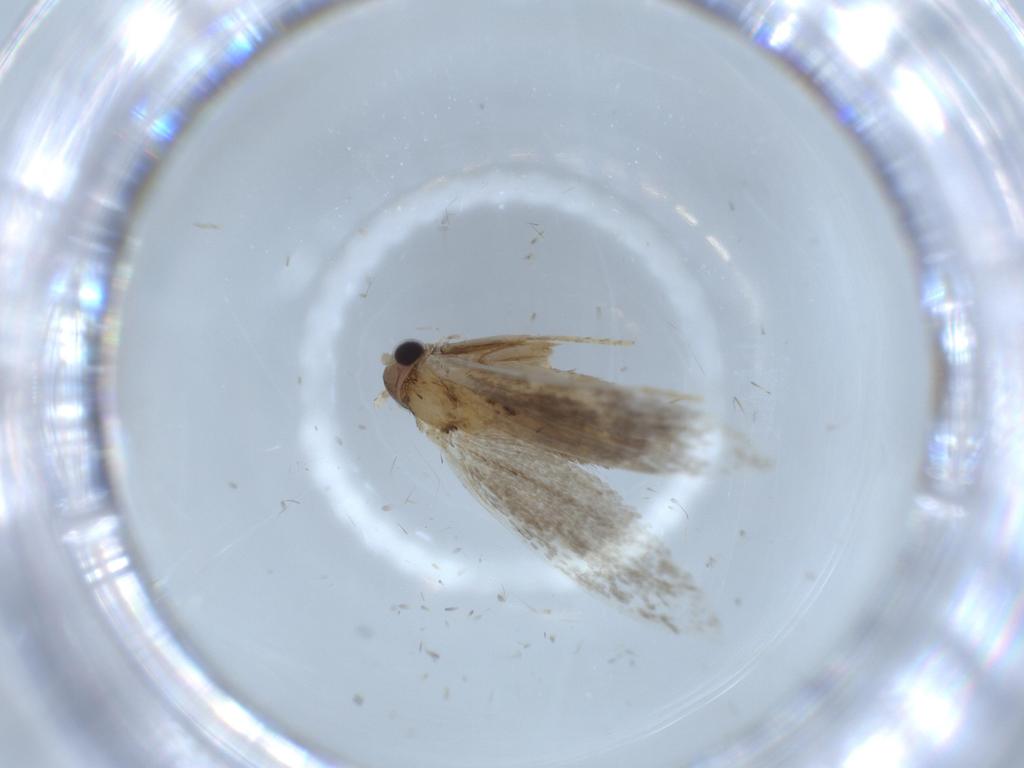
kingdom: Animalia
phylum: Arthropoda
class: Insecta
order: Lepidoptera
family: Tineidae
